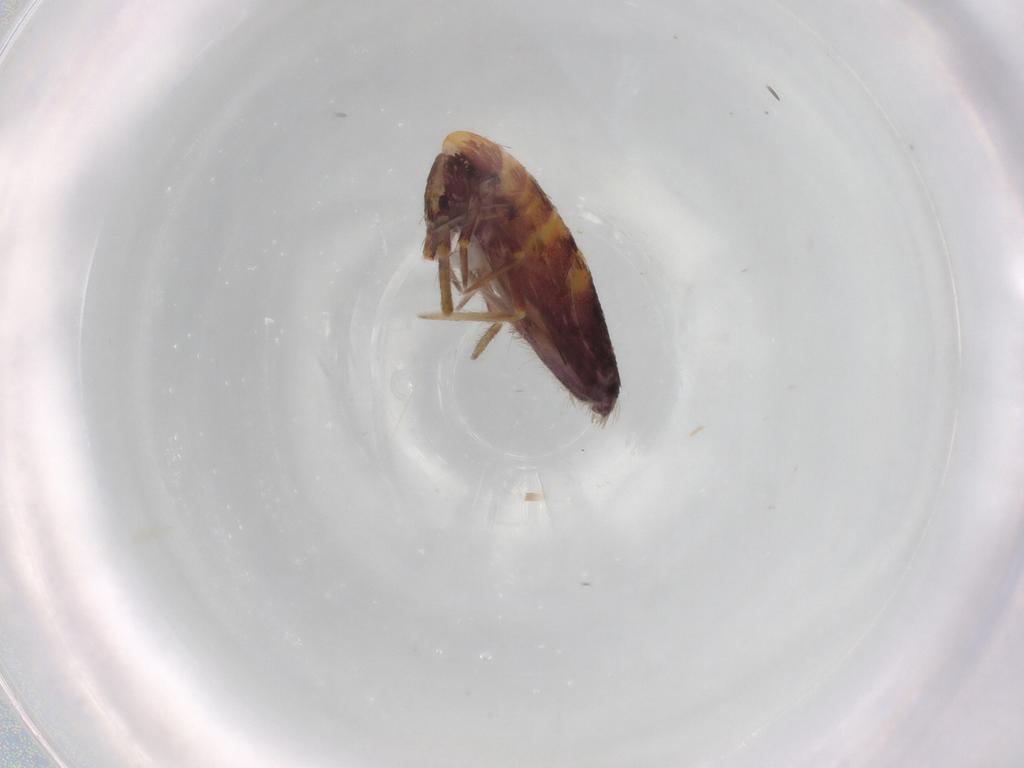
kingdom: Animalia
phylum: Arthropoda
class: Collembola
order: Entomobryomorpha
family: Entomobryidae
